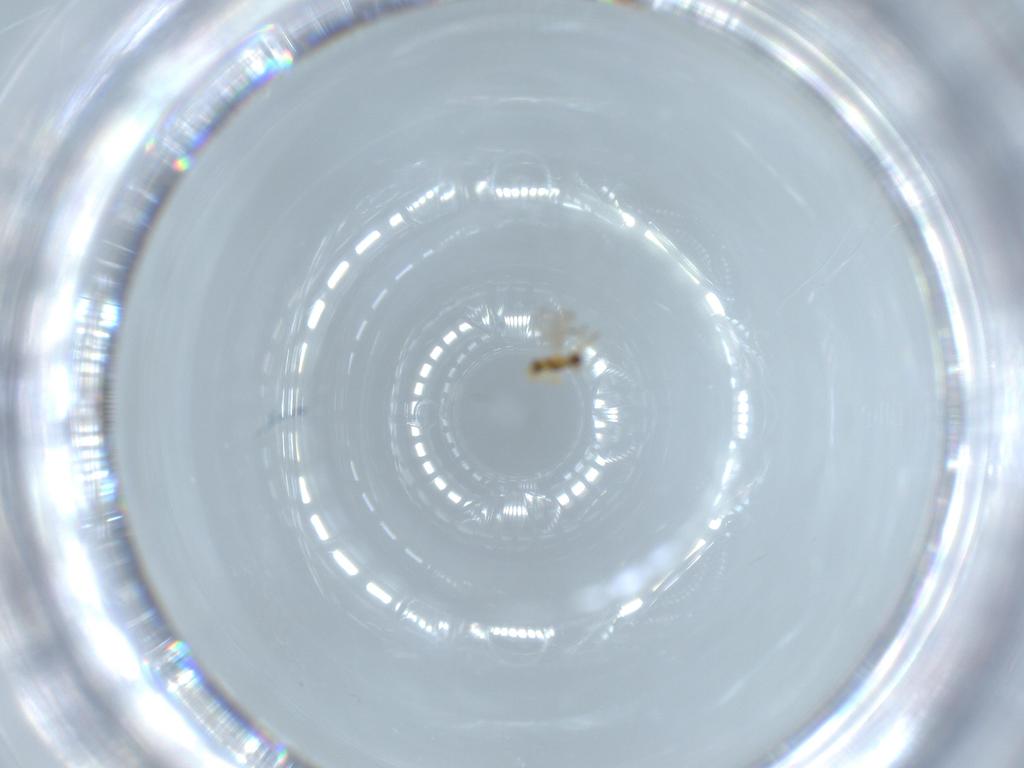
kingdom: Animalia
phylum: Arthropoda
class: Insecta
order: Hymenoptera
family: Aphelinidae
